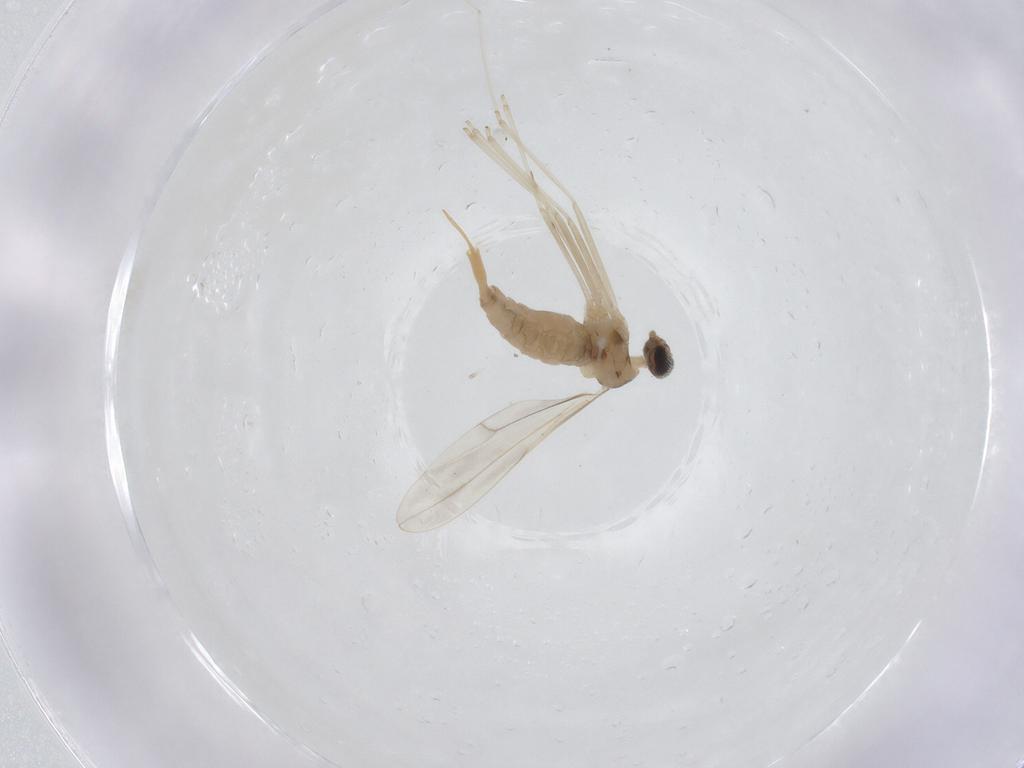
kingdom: Animalia
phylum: Arthropoda
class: Insecta
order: Diptera
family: Cecidomyiidae
